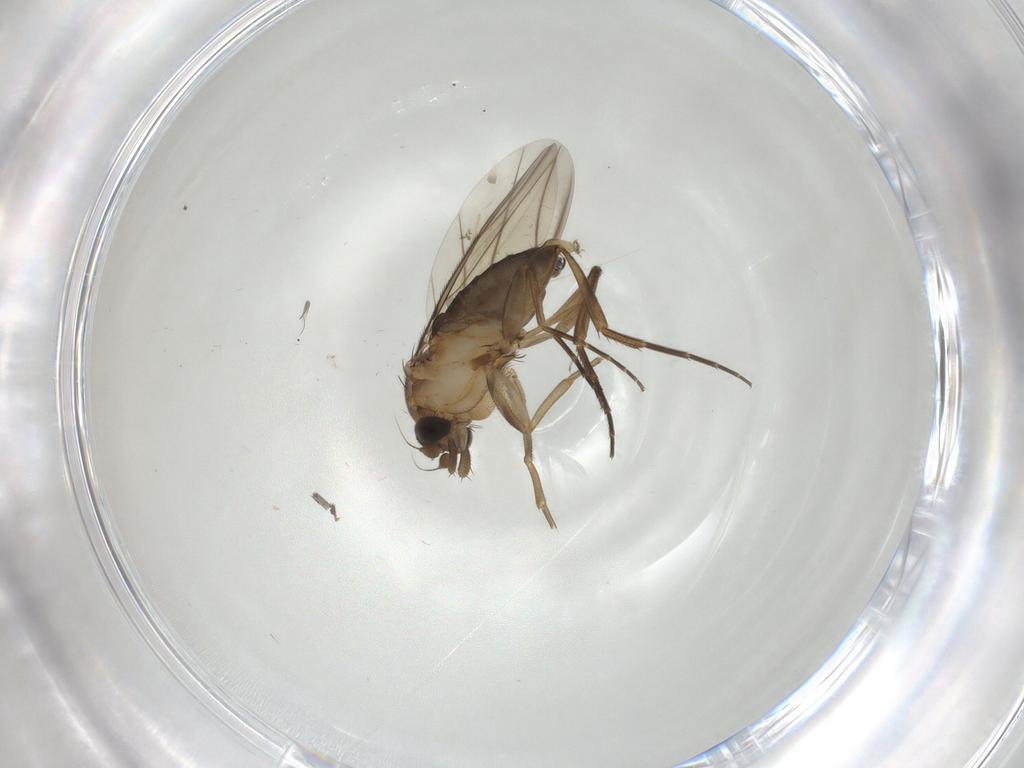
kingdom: Animalia
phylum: Arthropoda
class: Insecta
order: Diptera
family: Phoridae
